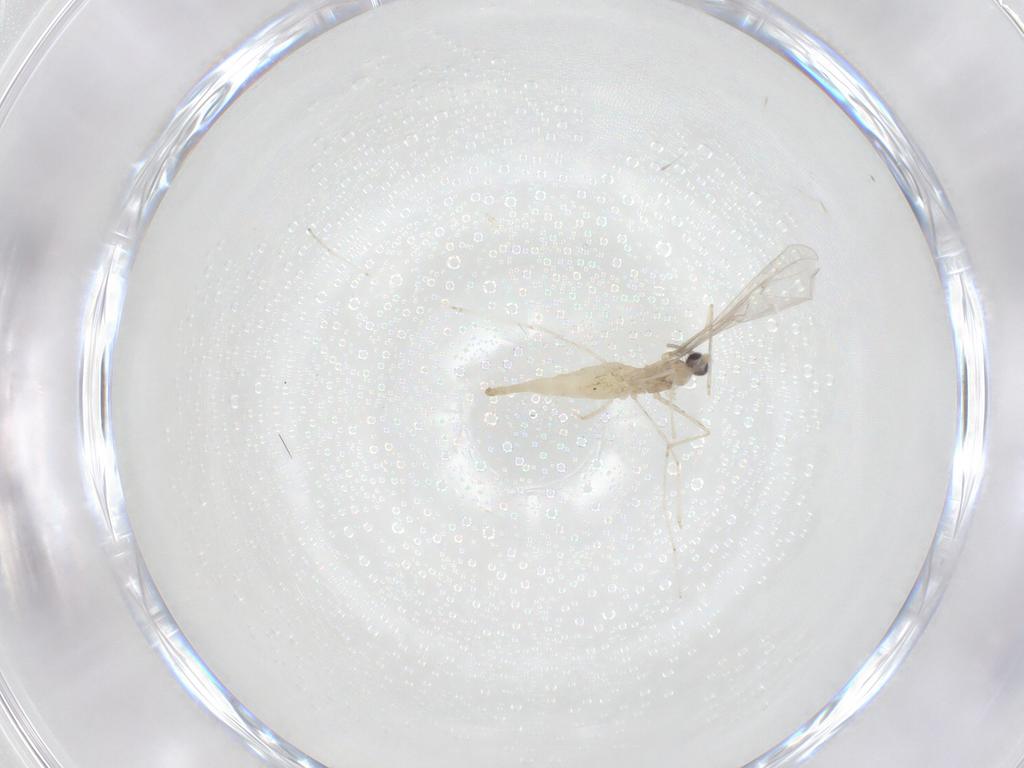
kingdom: Animalia
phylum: Arthropoda
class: Insecta
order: Diptera
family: Cecidomyiidae
